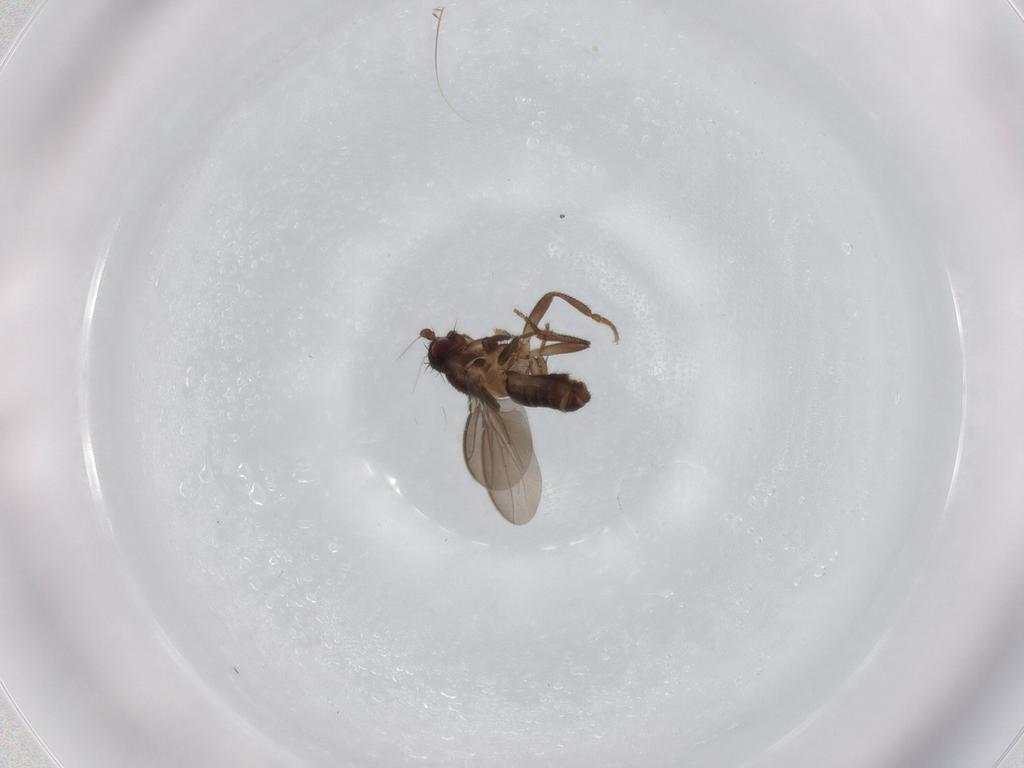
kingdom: Animalia
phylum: Arthropoda
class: Insecta
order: Diptera
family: Sphaeroceridae
